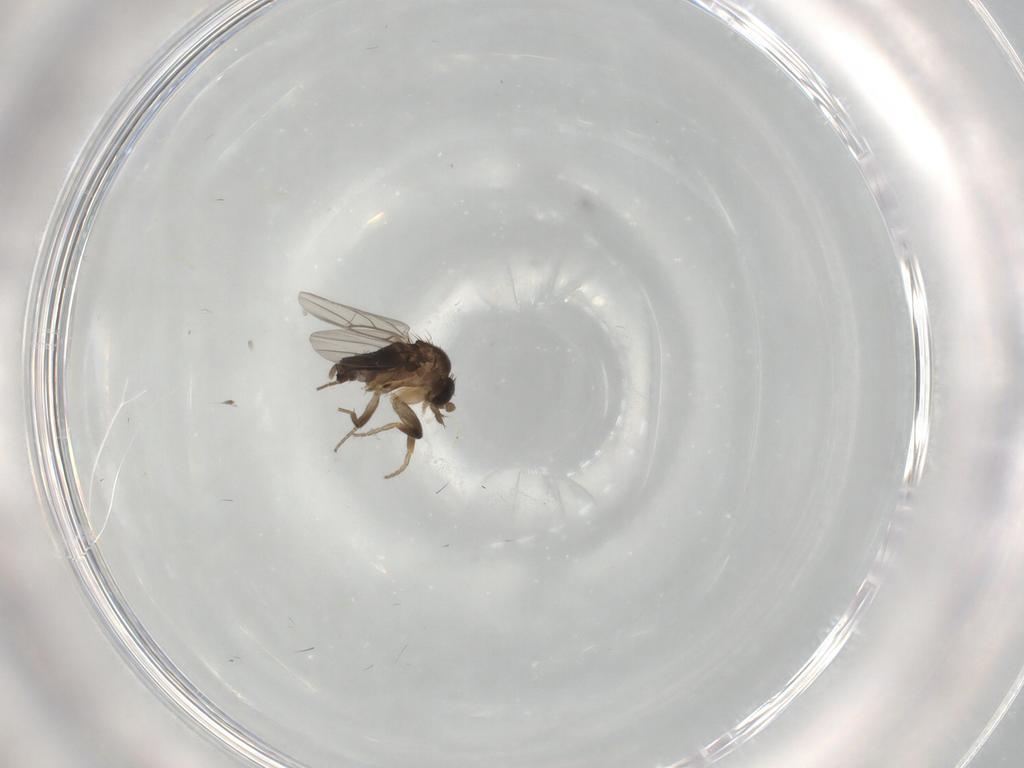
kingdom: Animalia
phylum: Arthropoda
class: Insecta
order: Diptera
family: Phoridae
